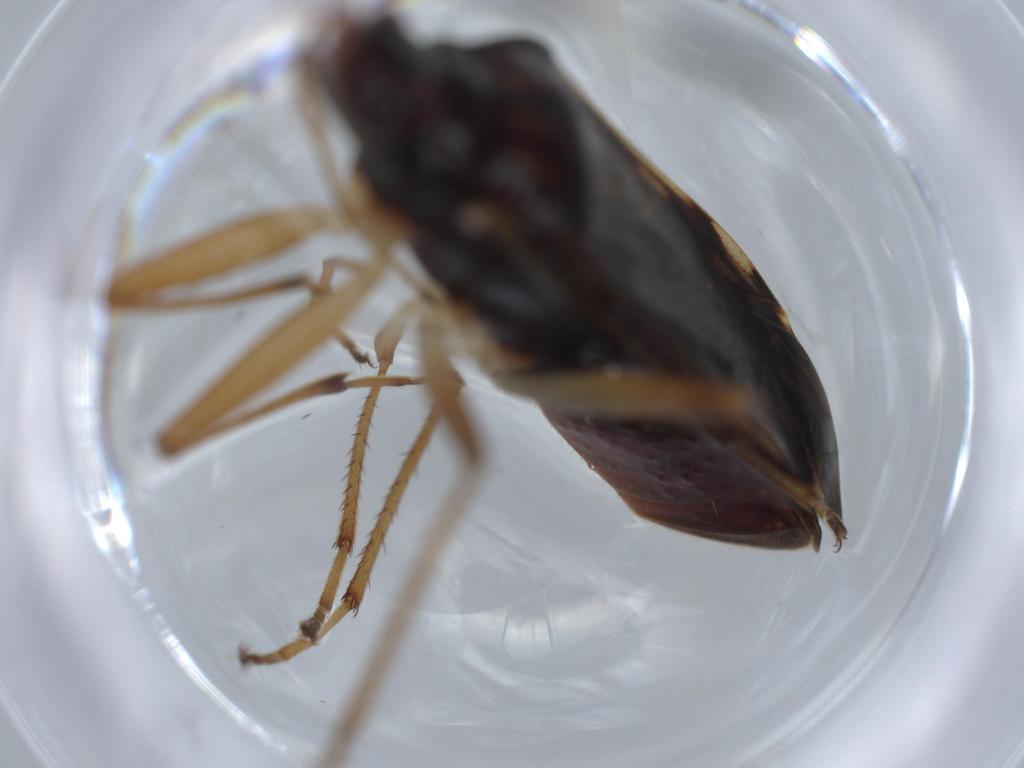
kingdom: Animalia
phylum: Arthropoda
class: Insecta
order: Hemiptera
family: Rhyparochromidae
